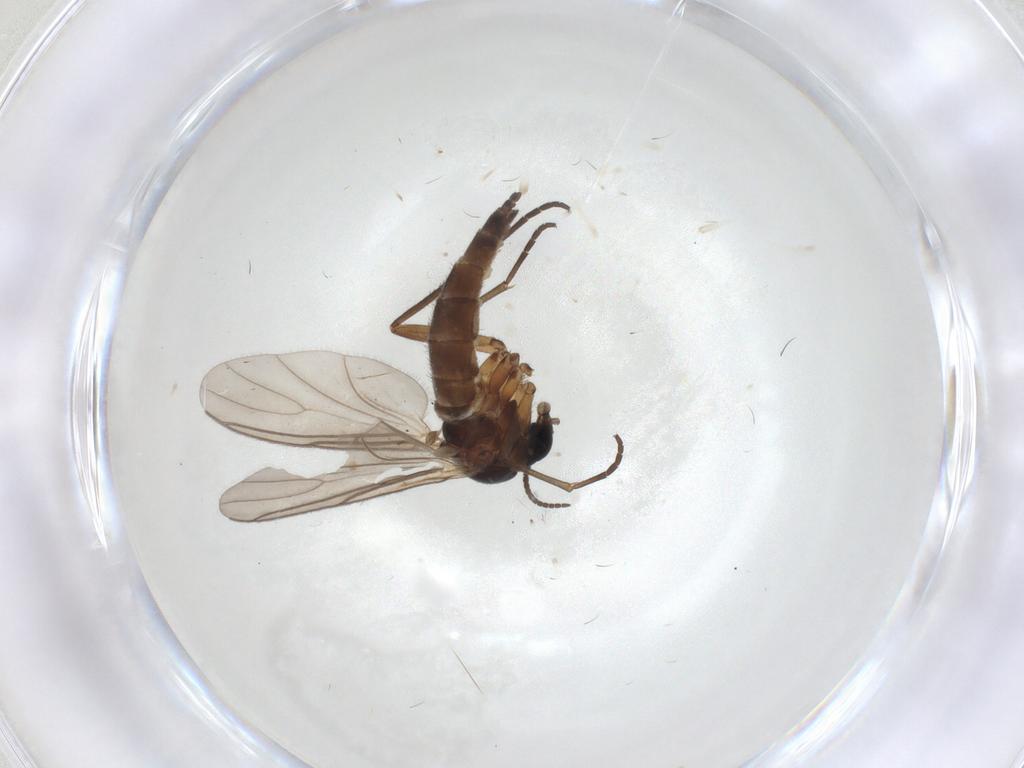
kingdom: Animalia
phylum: Arthropoda
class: Insecta
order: Diptera
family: Sciaridae
